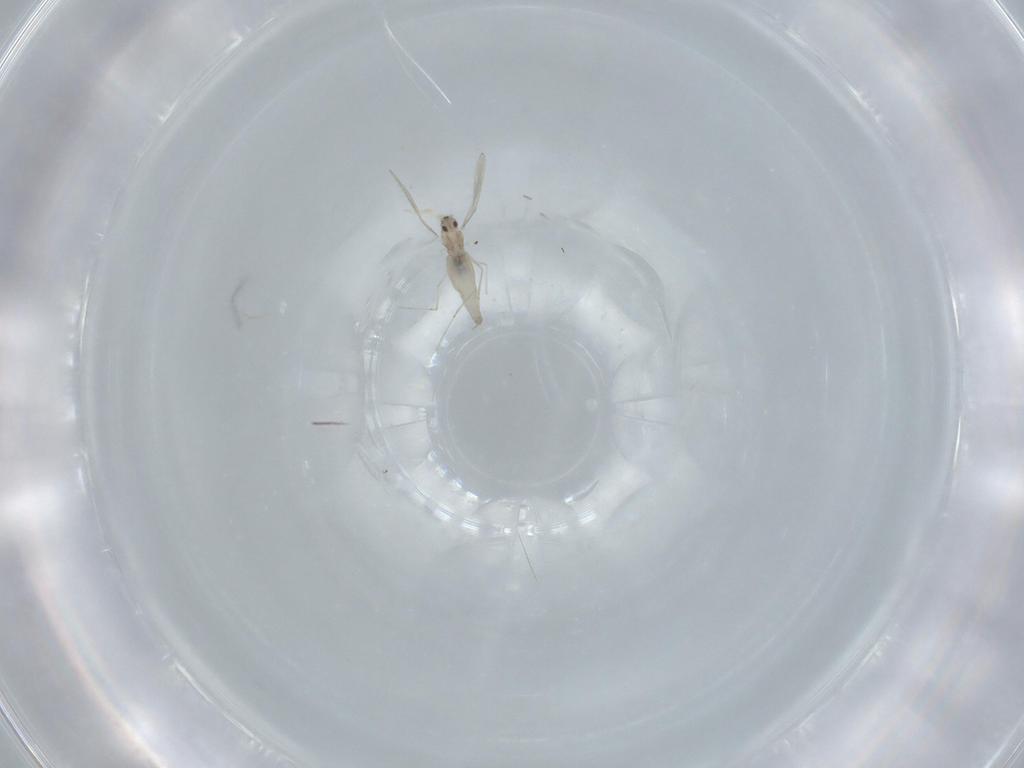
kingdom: Animalia
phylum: Arthropoda
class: Insecta
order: Diptera
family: Cecidomyiidae
